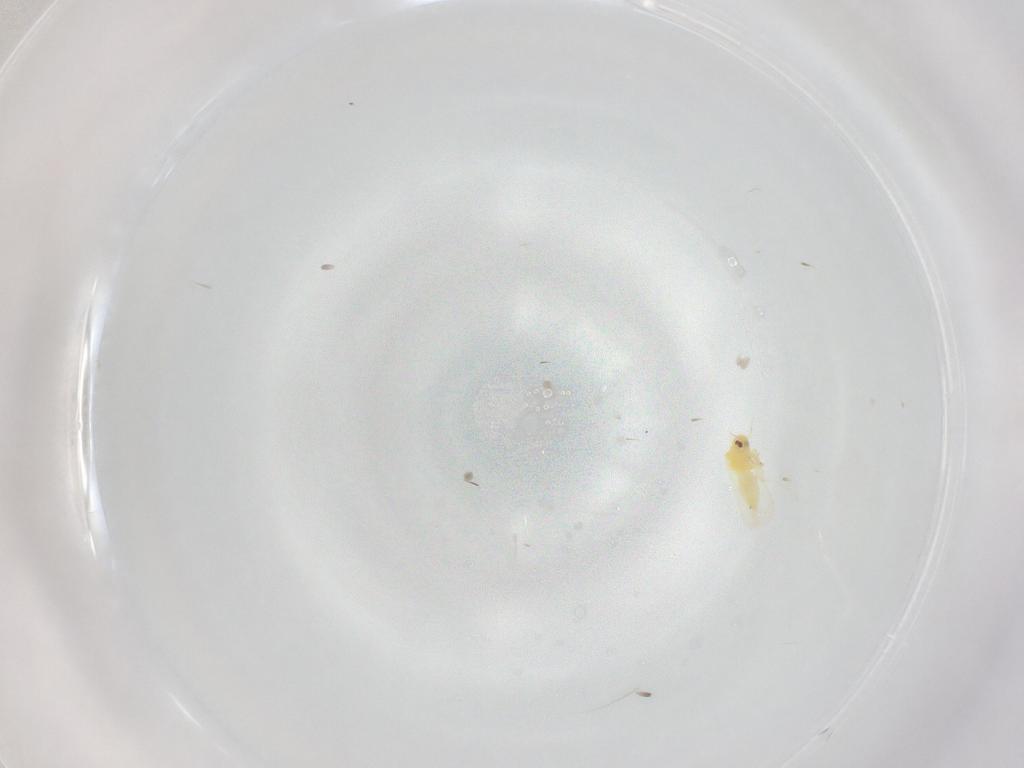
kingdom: Animalia
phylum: Arthropoda
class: Insecta
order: Hemiptera
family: Aleyrodidae
